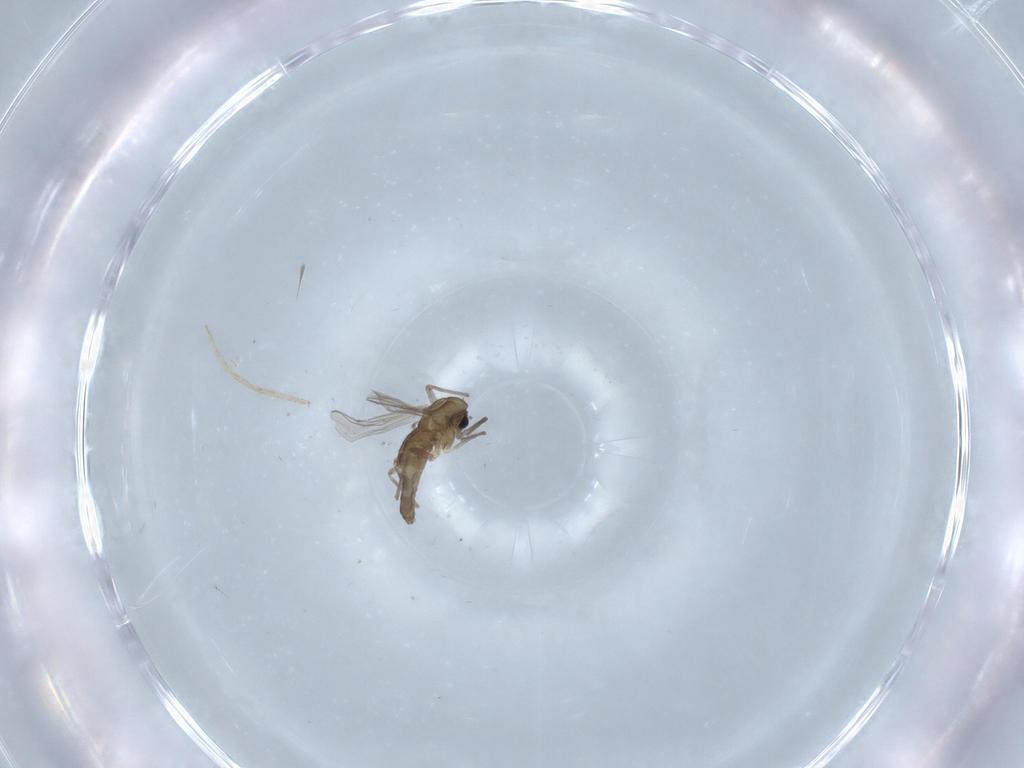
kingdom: Animalia
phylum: Arthropoda
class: Insecta
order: Diptera
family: Chironomidae
